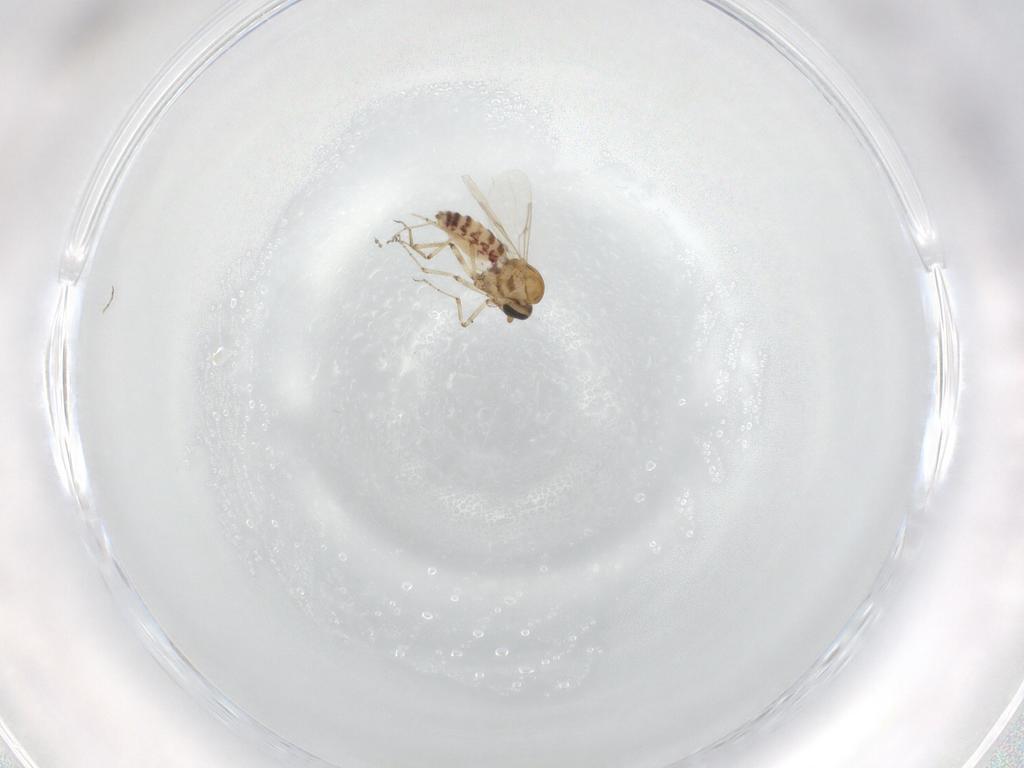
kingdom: Animalia
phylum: Arthropoda
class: Insecta
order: Diptera
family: Ceratopogonidae
